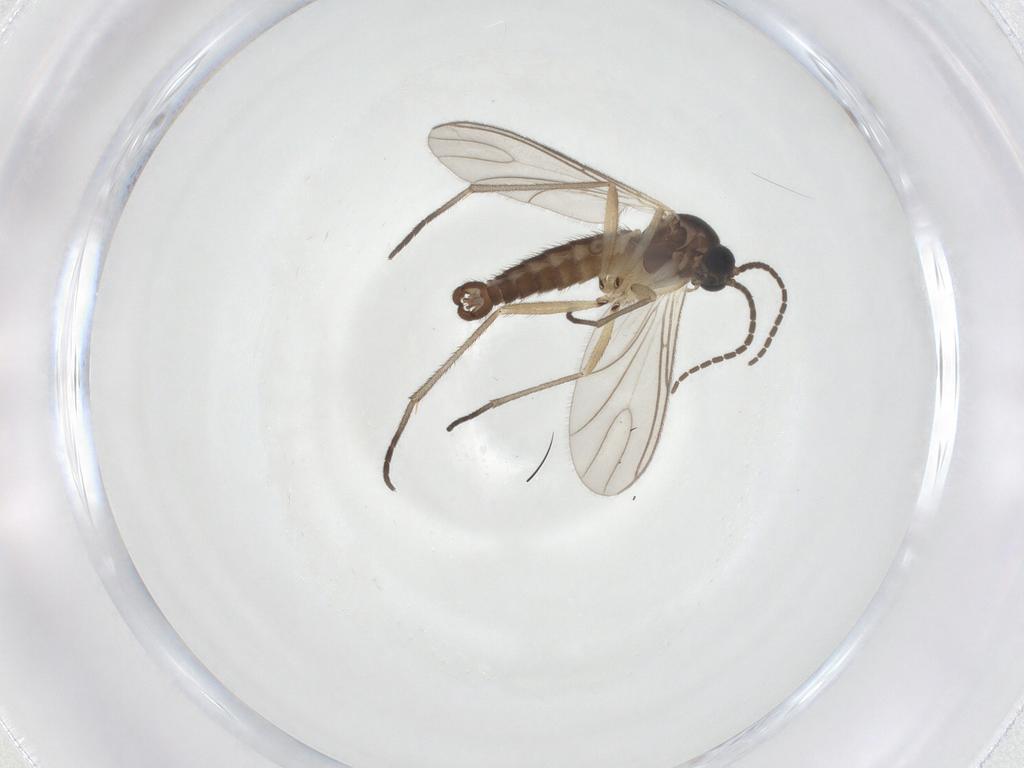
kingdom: Animalia
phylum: Arthropoda
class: Insecta
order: Diptera
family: Sciaridae
